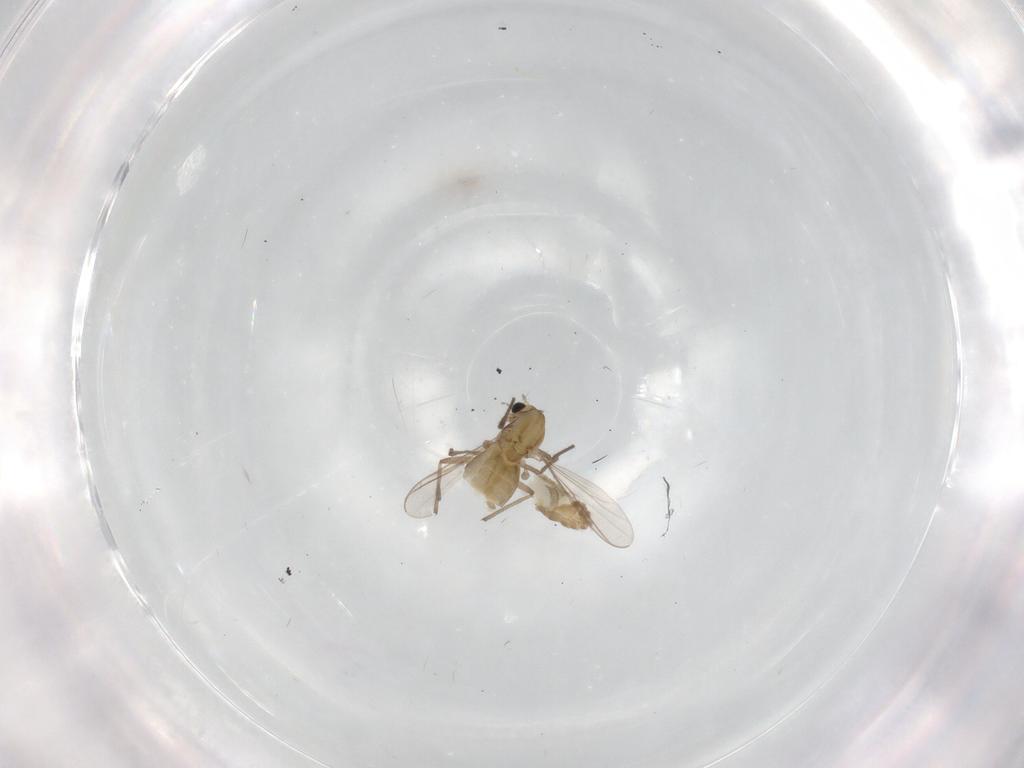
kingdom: Animalia
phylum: Arthropoda
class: Insecta
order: Diptera
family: Chironomidae
